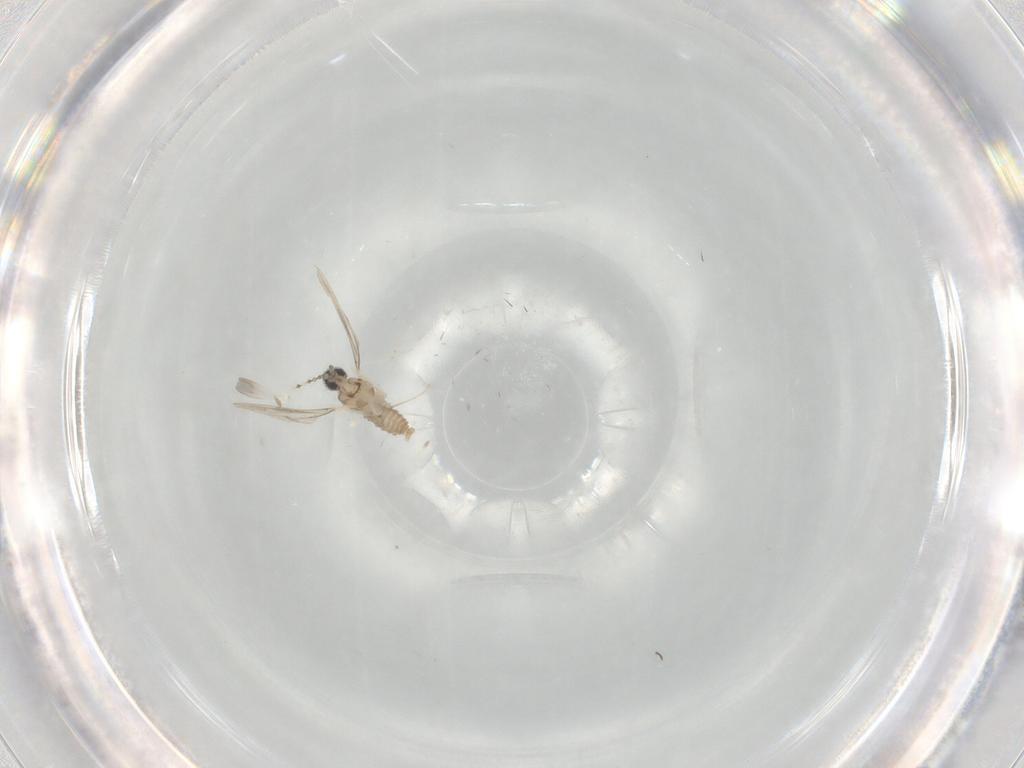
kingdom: Animalia
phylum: Arthropoda
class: Insecta
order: Diptera
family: Cecidomyiidae
